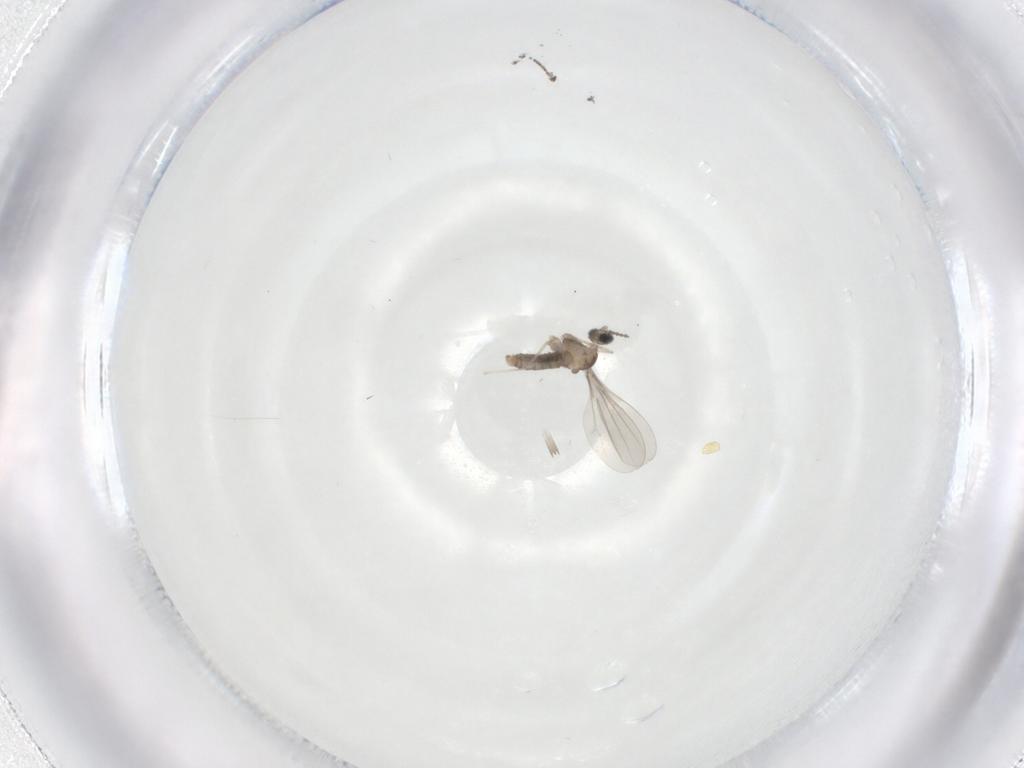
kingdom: Animalia
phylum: Arthropoda
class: Insecta
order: Diptera
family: Cecidomyiidae
